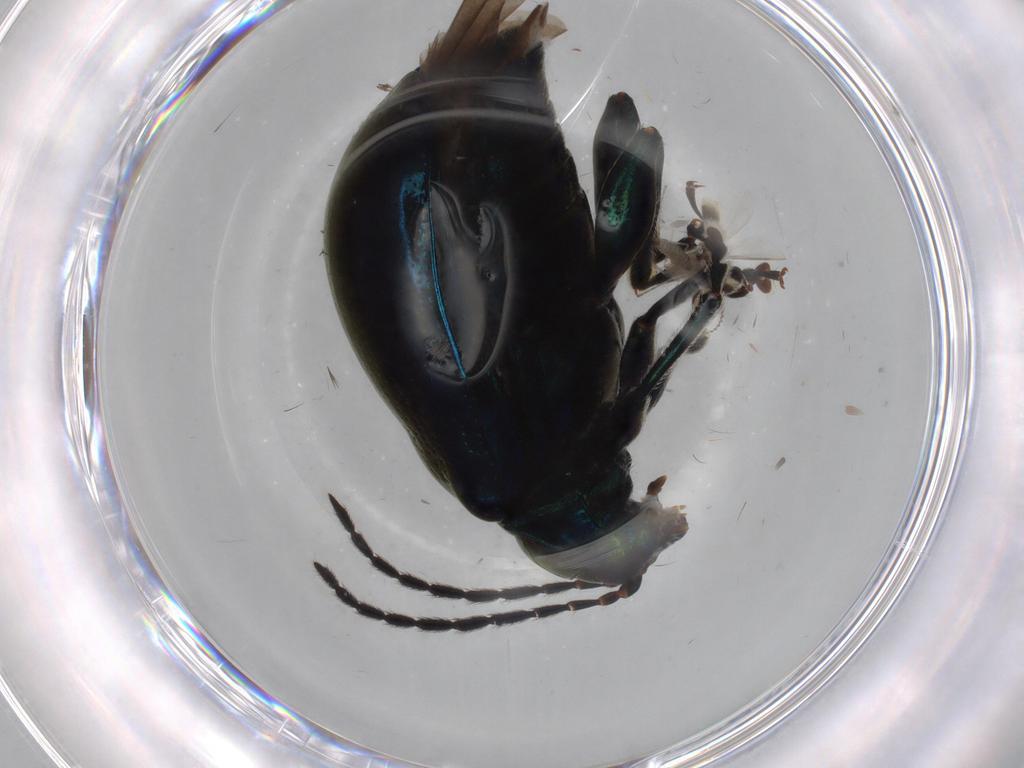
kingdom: Animalia
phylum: Arthropoda
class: Insecta
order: Coleoptera
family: Chrysomelidae
